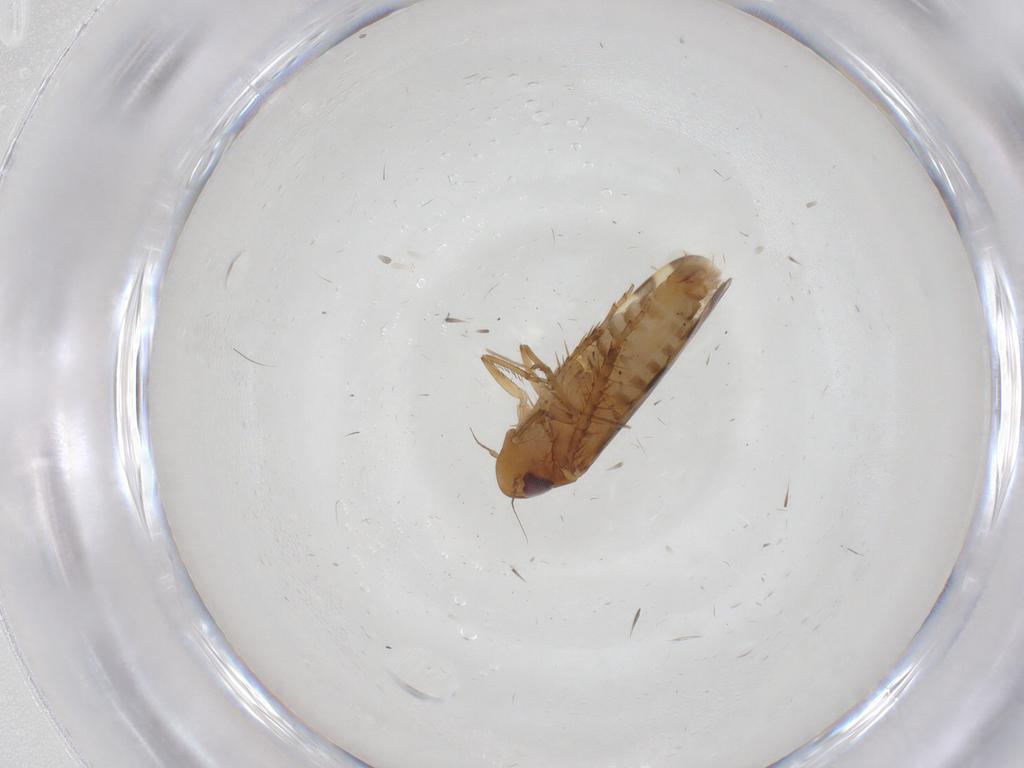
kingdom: Animalia
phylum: Arthropoda
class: Insecta
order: Hemiptera
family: Cicadellidae
